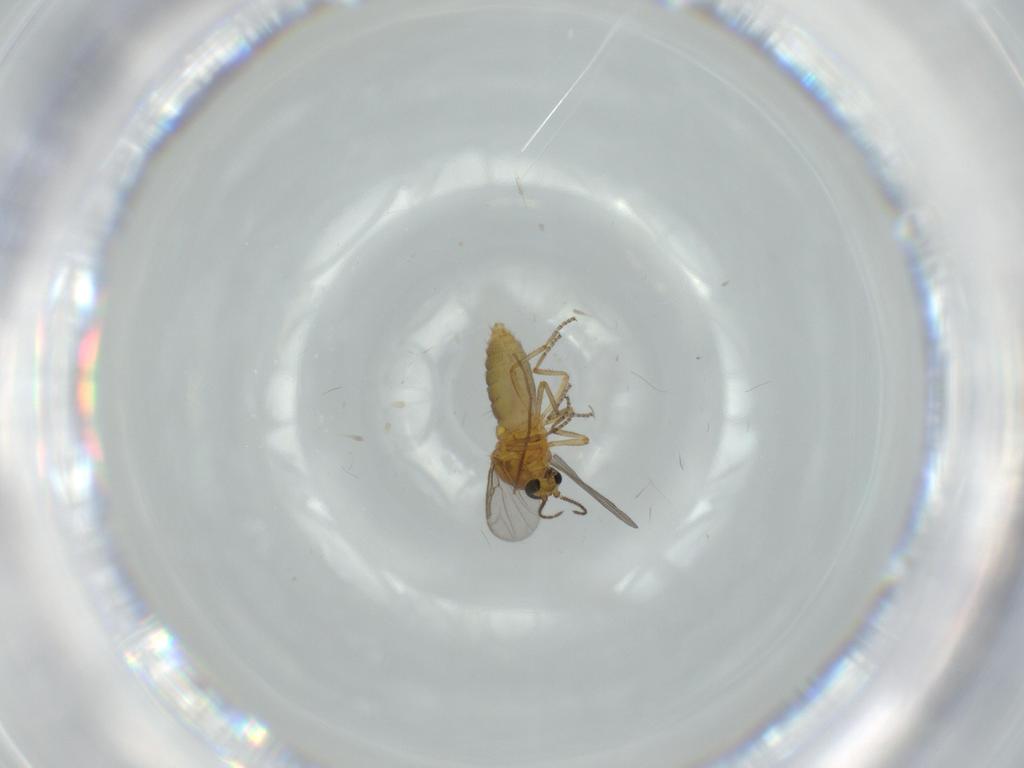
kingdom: Animalia
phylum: Arthropoda
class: Insecta
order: Diptera
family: Ceratopogonidae
